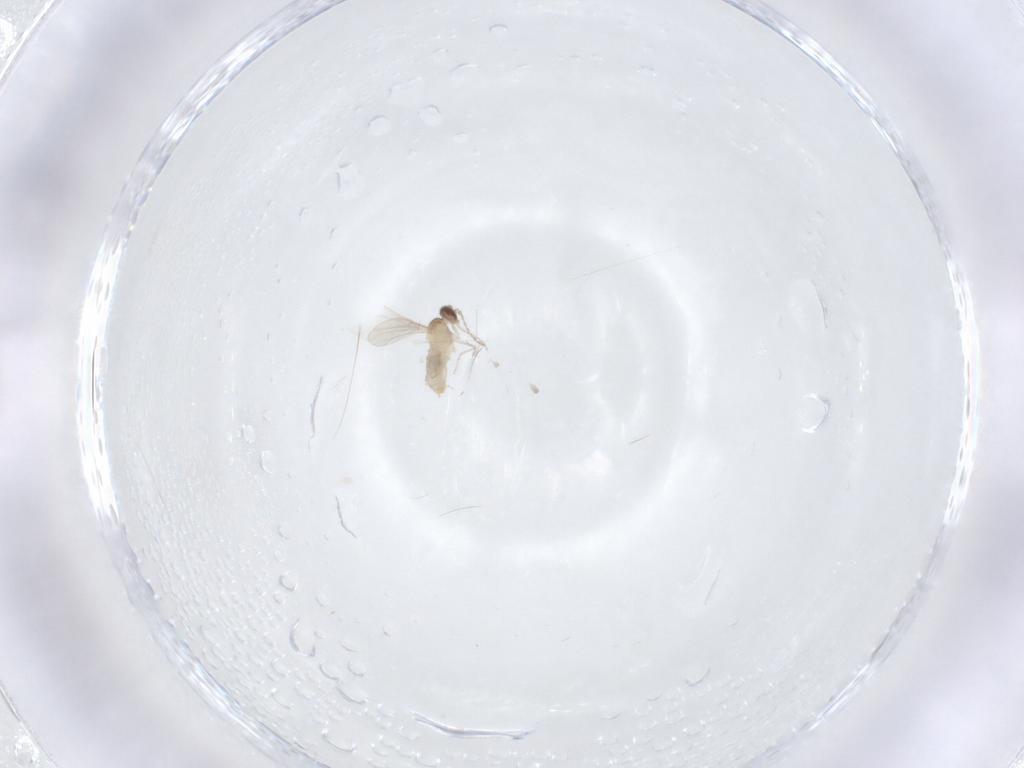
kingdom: Animalia
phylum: Arthropoda
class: Insecta
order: Diptera
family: Cecidomyiidae
